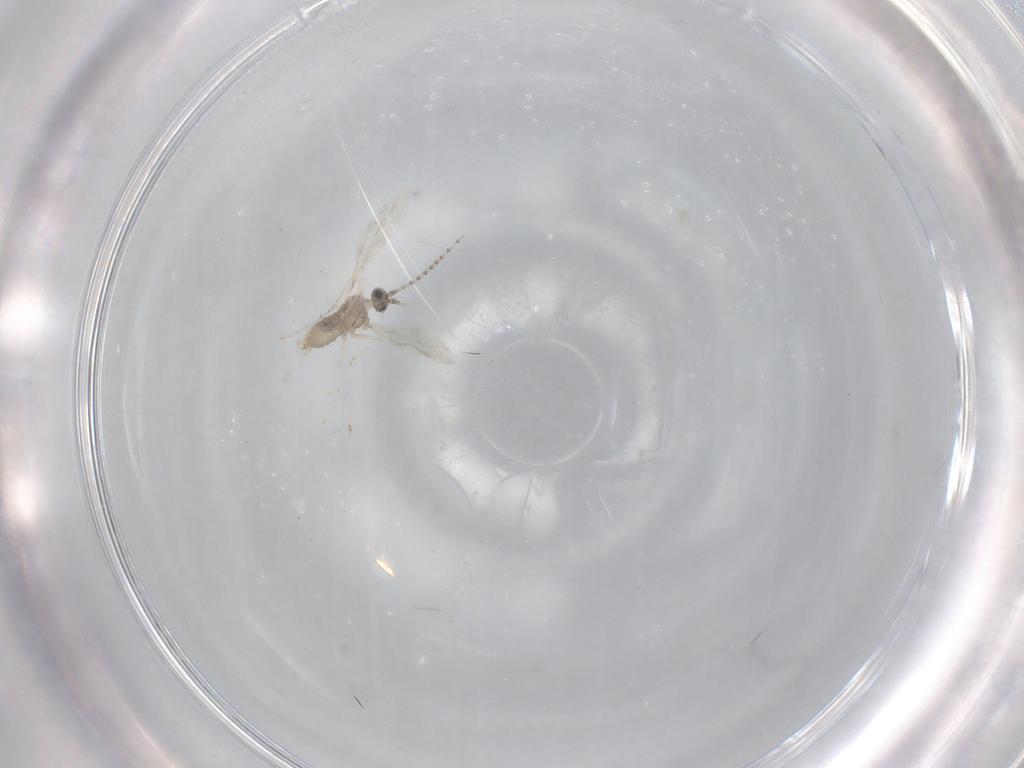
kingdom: Animalia
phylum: Arthropoda
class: Insecta
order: Diptera
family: Cecidomyiidae
